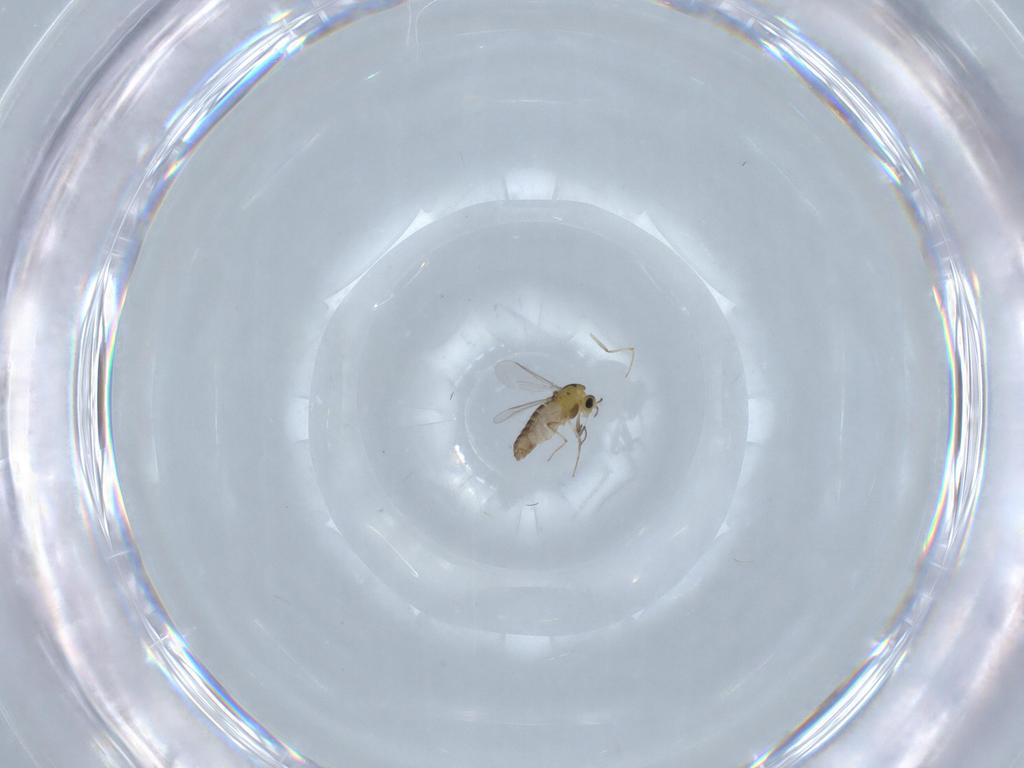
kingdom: Animalia
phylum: Arthropoda
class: Insecta
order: Diptera
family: Chironomidae
